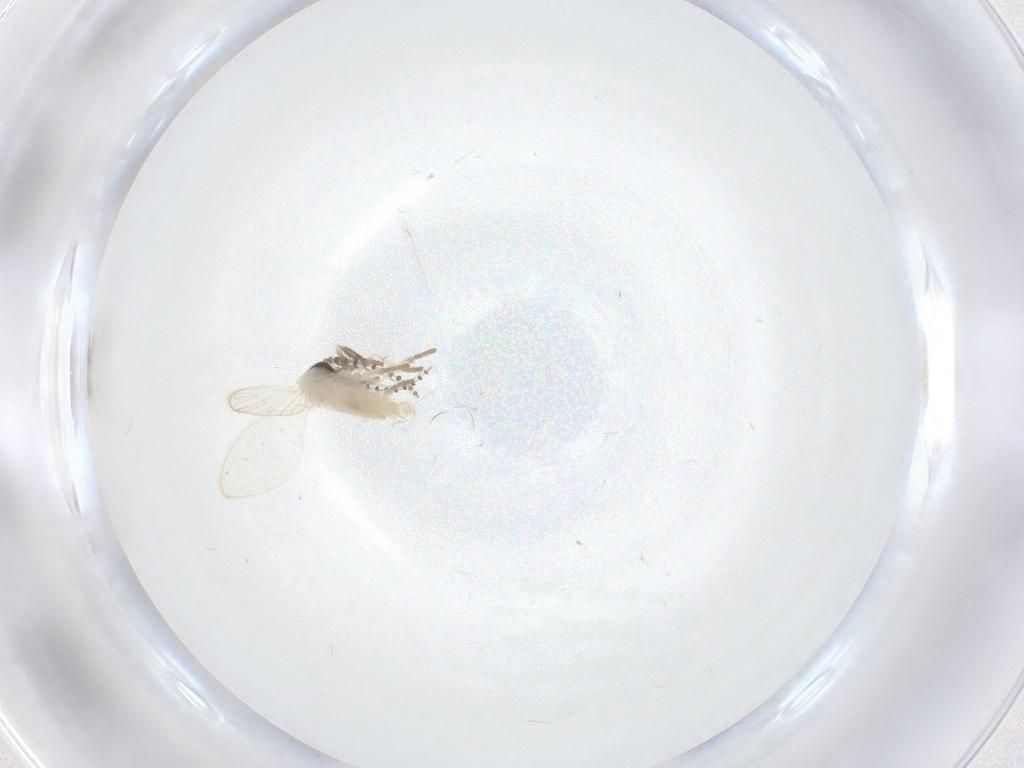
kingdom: Animalia
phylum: Arthropoda
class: Insecta
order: Diptera
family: Psychodidae
